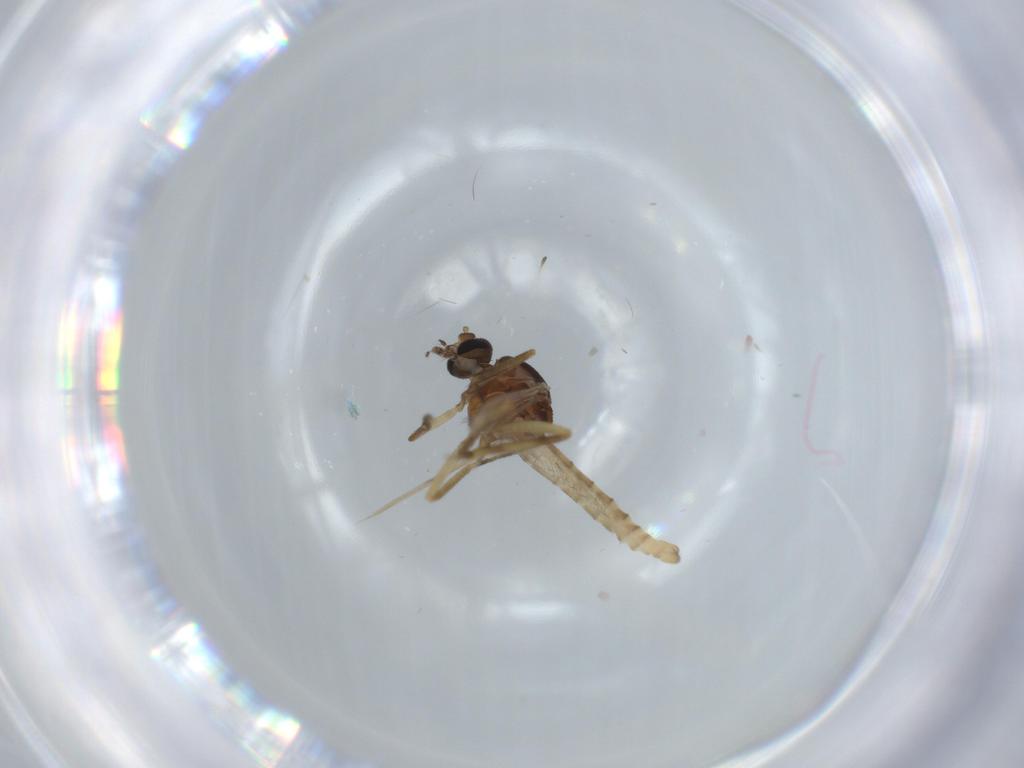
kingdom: Animalia
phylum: Arthropoda
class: Insecta
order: Diptera
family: Ceratopogonidae
